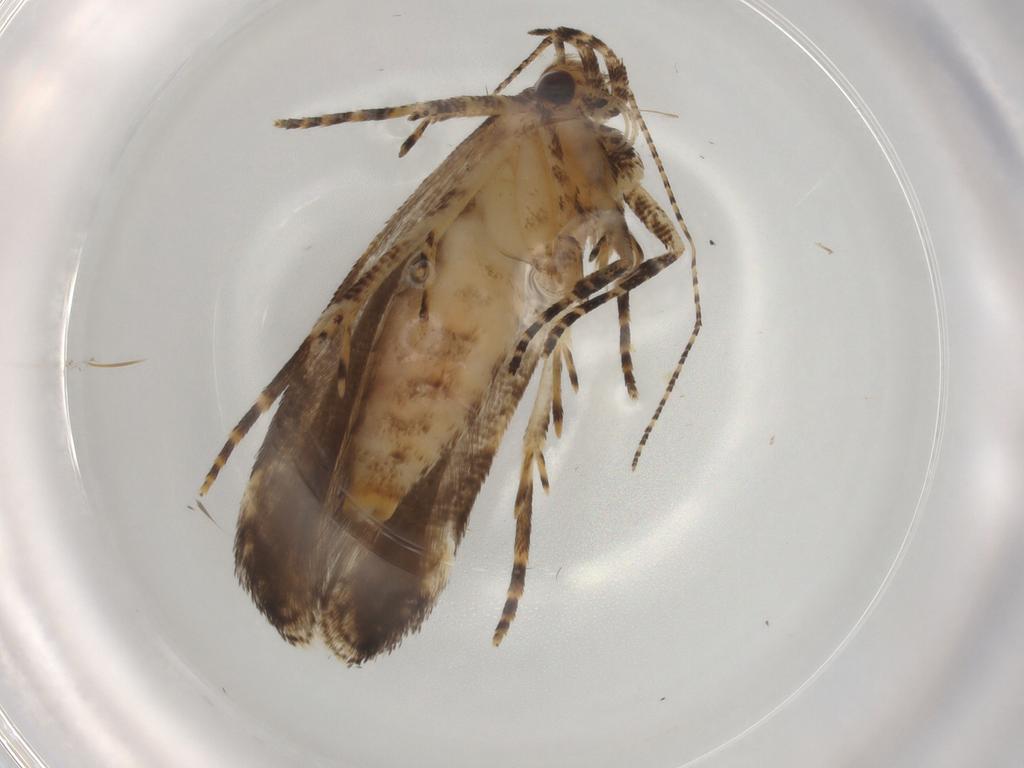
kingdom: Animalia
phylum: Arthropoda
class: Insecta
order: Lepidoptera
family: Gelechiidae
